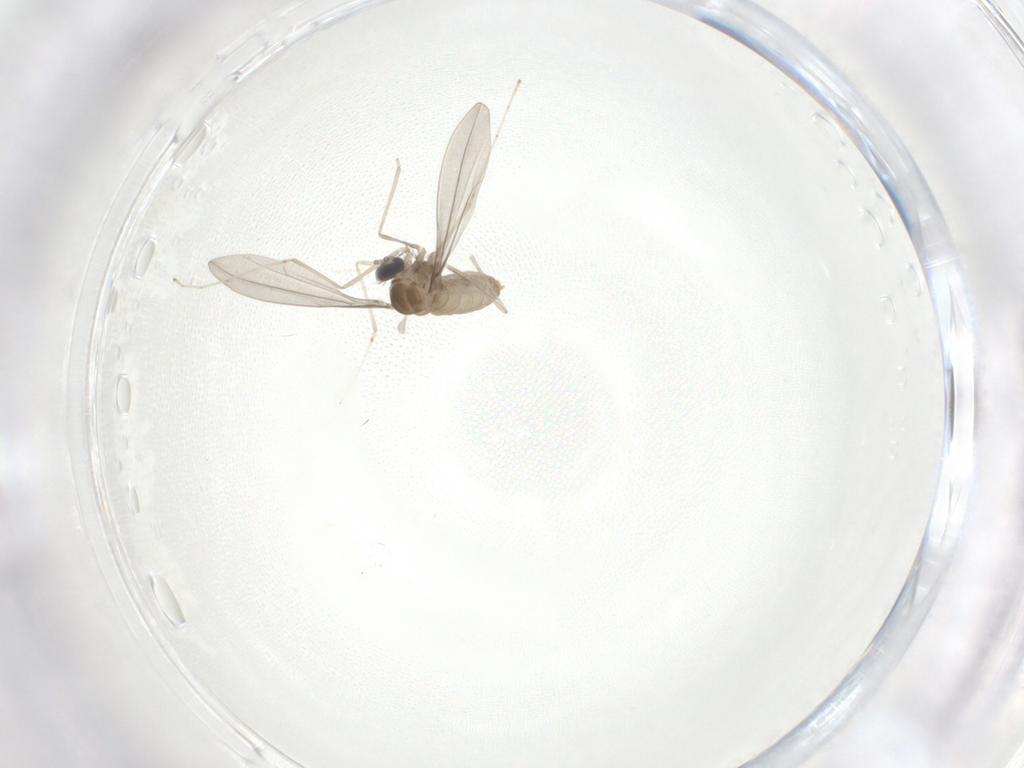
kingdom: Animalia
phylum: Arthropoda
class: Insecta
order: Diptera
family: Cecidomyiidae
